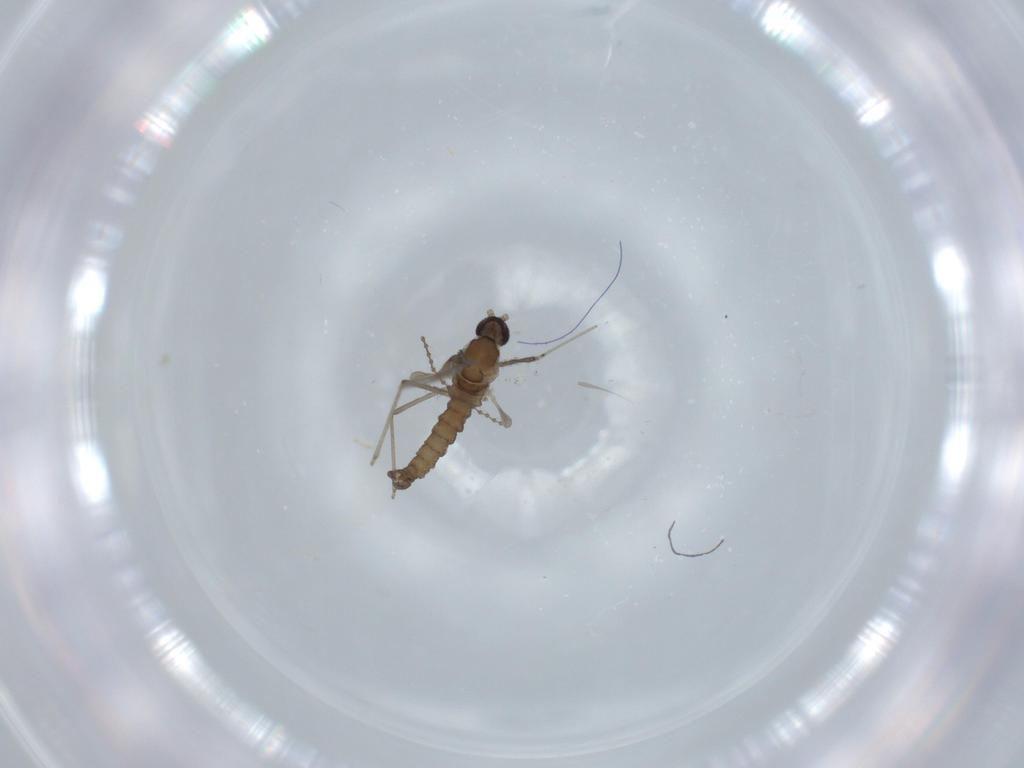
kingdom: Animalia
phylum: Arthropoda
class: Insecta
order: Diptera
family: Cecidomyiidae
